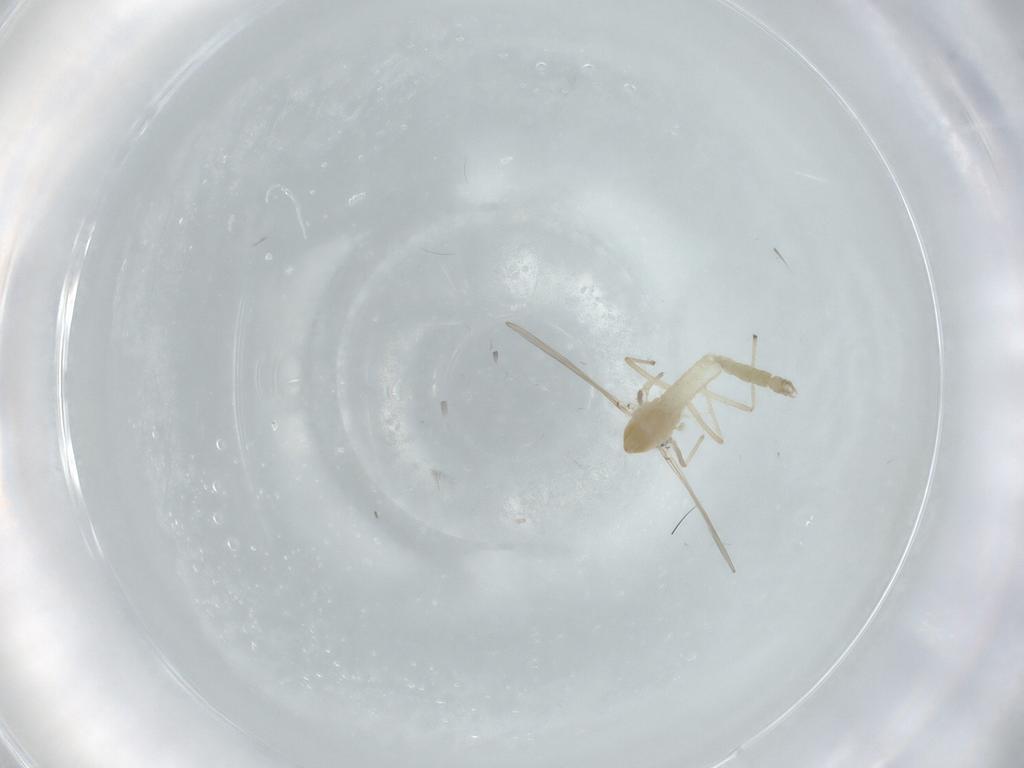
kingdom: Animalia
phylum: Arthropoda
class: Insecta
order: Diptera
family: Chironomidae
